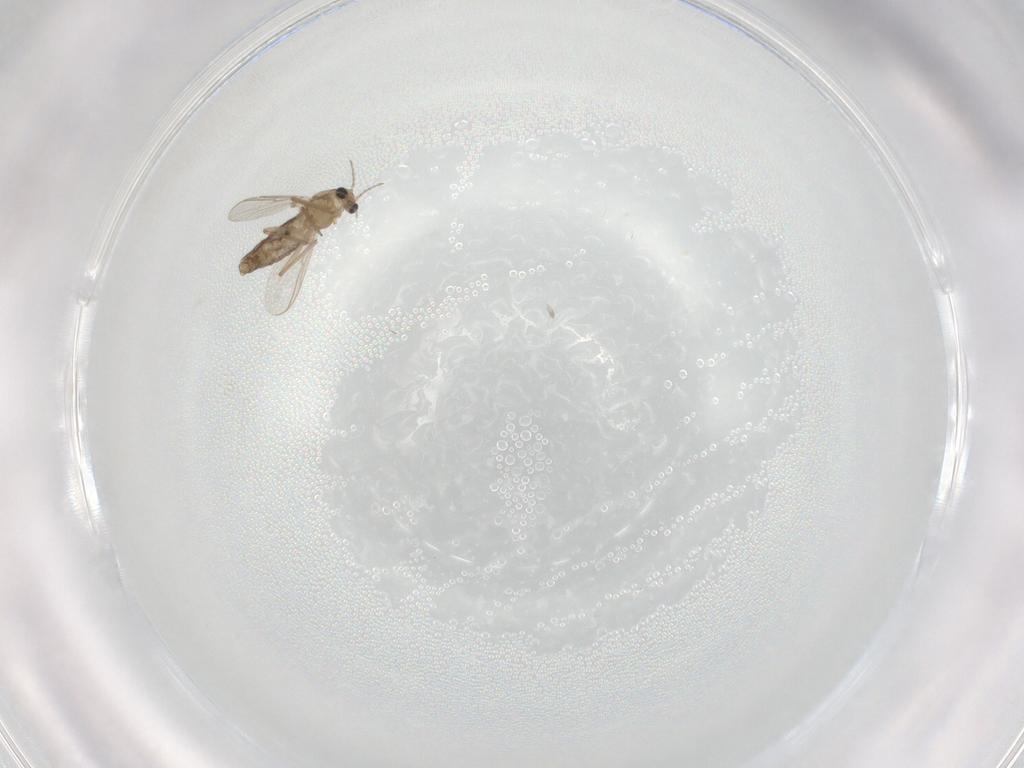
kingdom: Animalia
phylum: Arthropoda
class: Insecta
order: Diptera
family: Chironomidae
